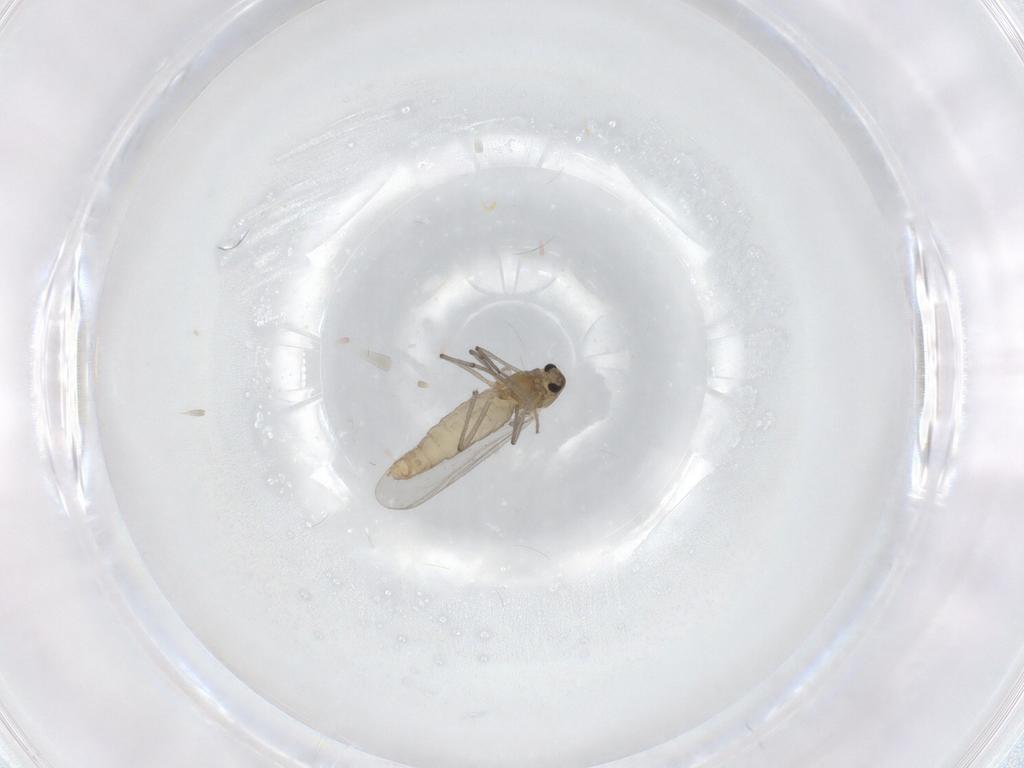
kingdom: Animalia
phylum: Arthropoda
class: Insecta
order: Diptera
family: Chironomidae
